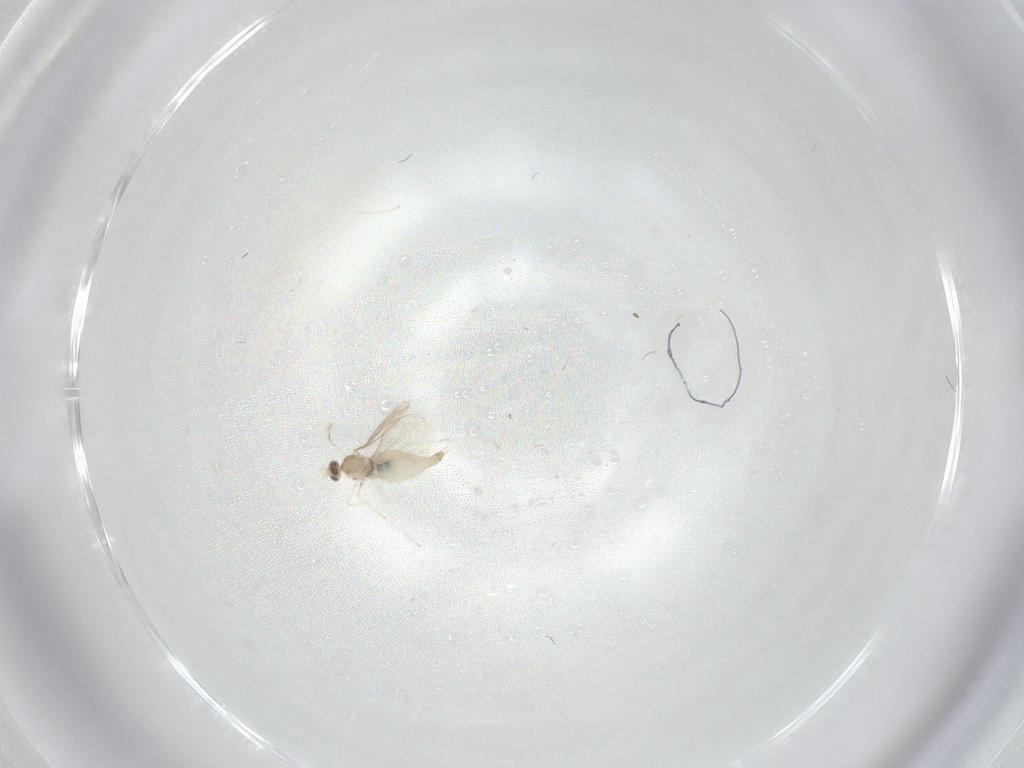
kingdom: Animalia
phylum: Arthropoda
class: Insecta
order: Diptera
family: Cecidomyiidae
